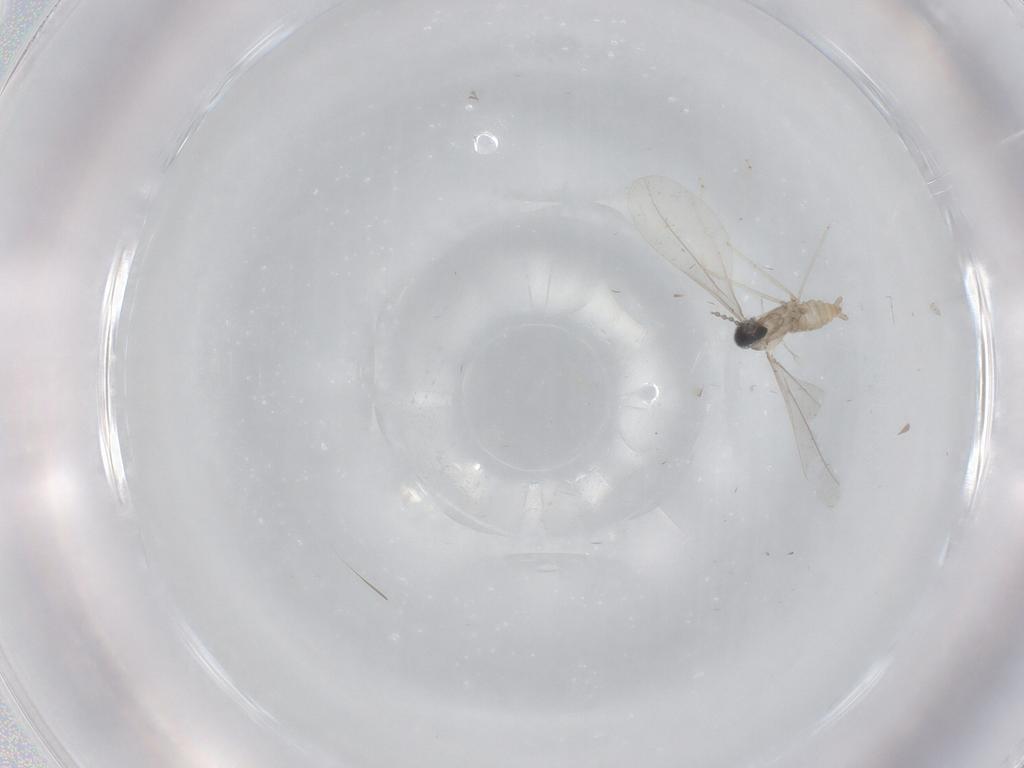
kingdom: Animalia
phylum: Arthropoda
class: Insecta
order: Diptera
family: Cecidomyiidae
